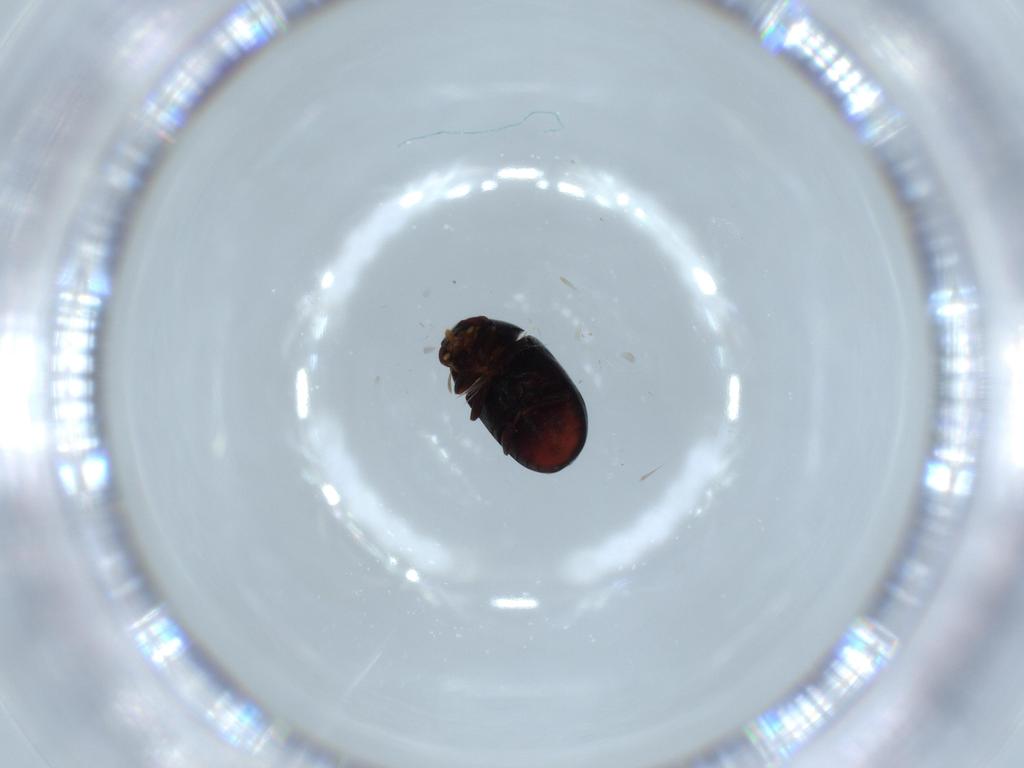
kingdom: Animalia
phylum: Arthropoda
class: Insecta
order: Coleoptera
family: Ptinidae
